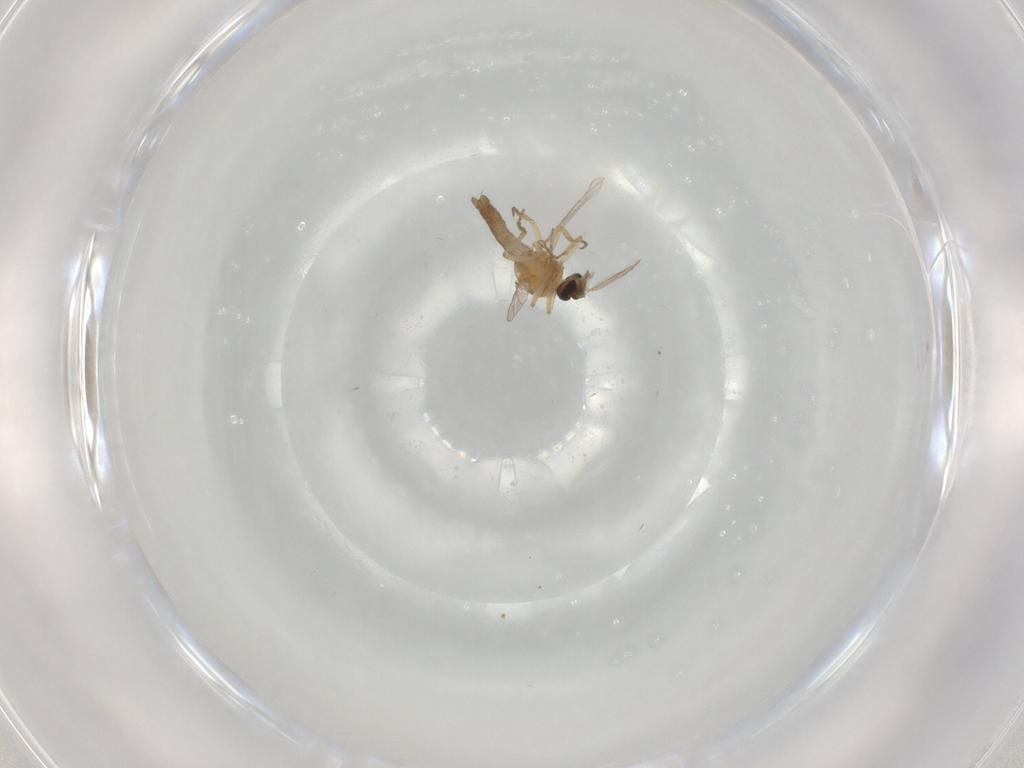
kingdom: Animalia
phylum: Arthropoda
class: Insecta
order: Diptera
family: Ceratopogonidae
